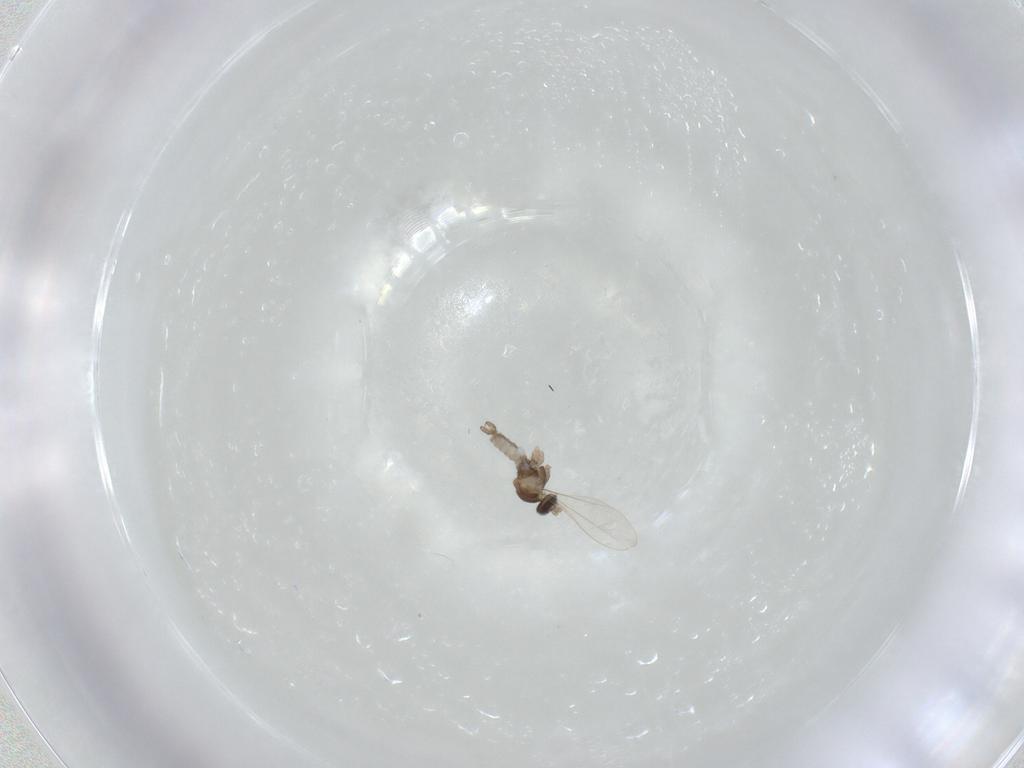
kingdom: Animalia
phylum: Arthropoda
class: Insecta
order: Diptera
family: Cecidomyiidae
